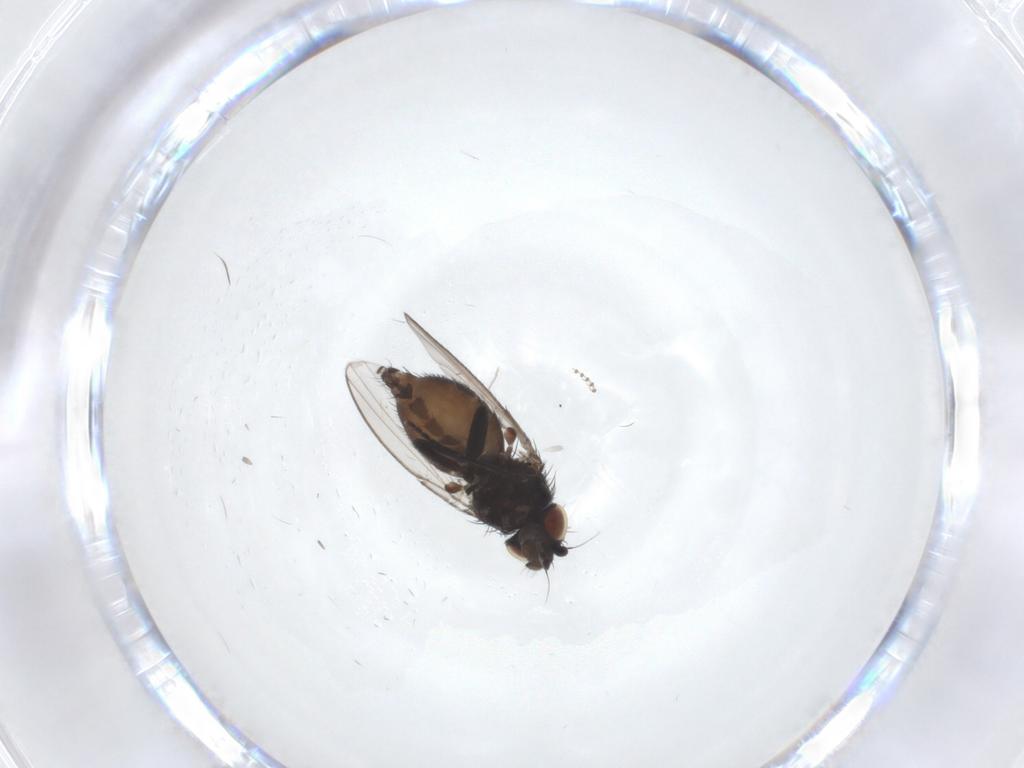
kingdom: Animalia
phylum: Arthropoda
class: Insecta
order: Diptera
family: Milichiidae
